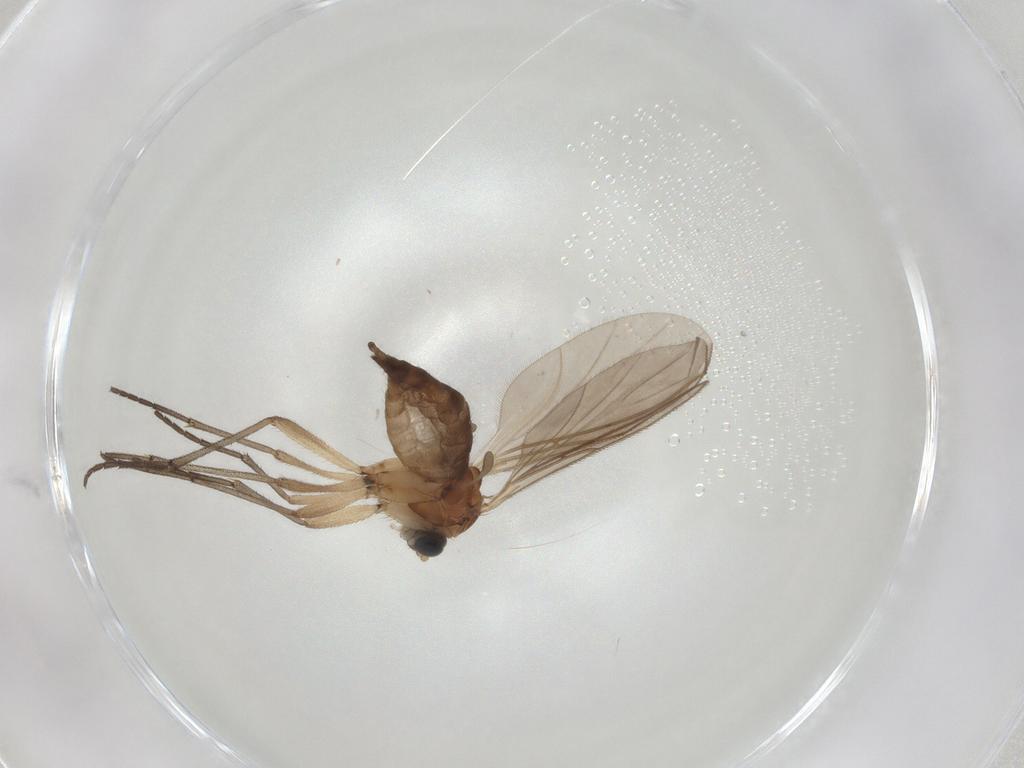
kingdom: Animalia
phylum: Arthropoda
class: Insecta
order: Diptera
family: Sciaridae
